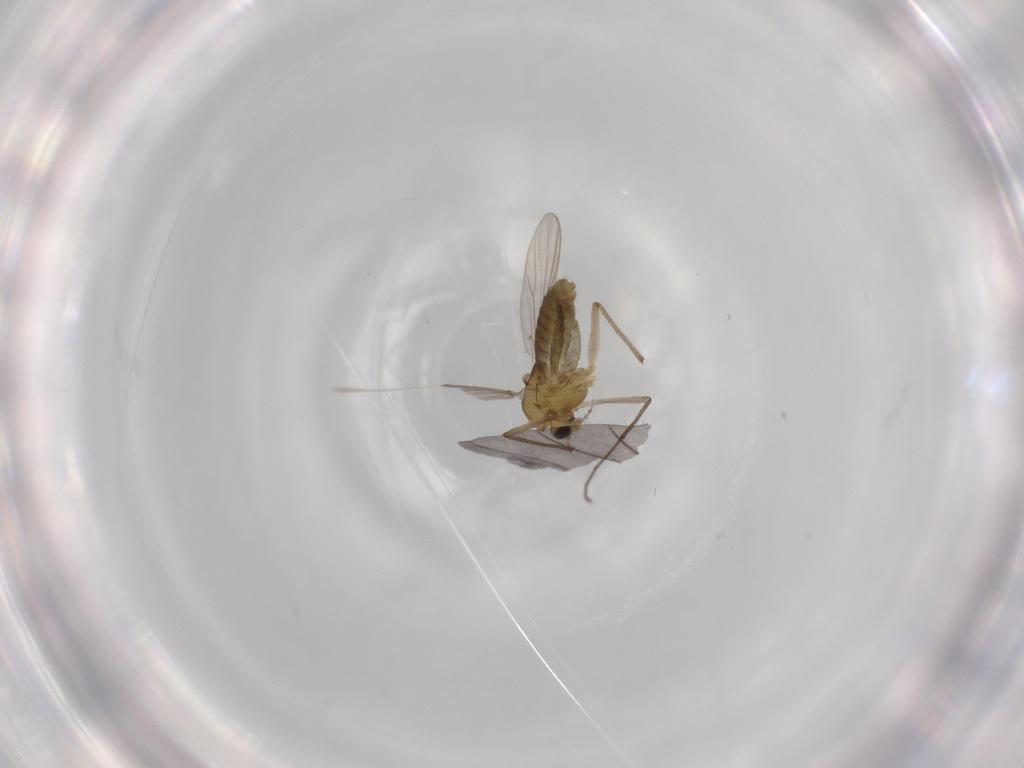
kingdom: Animalia
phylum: Arthropoda
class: Insecta
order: Diptera
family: Chironomidae
